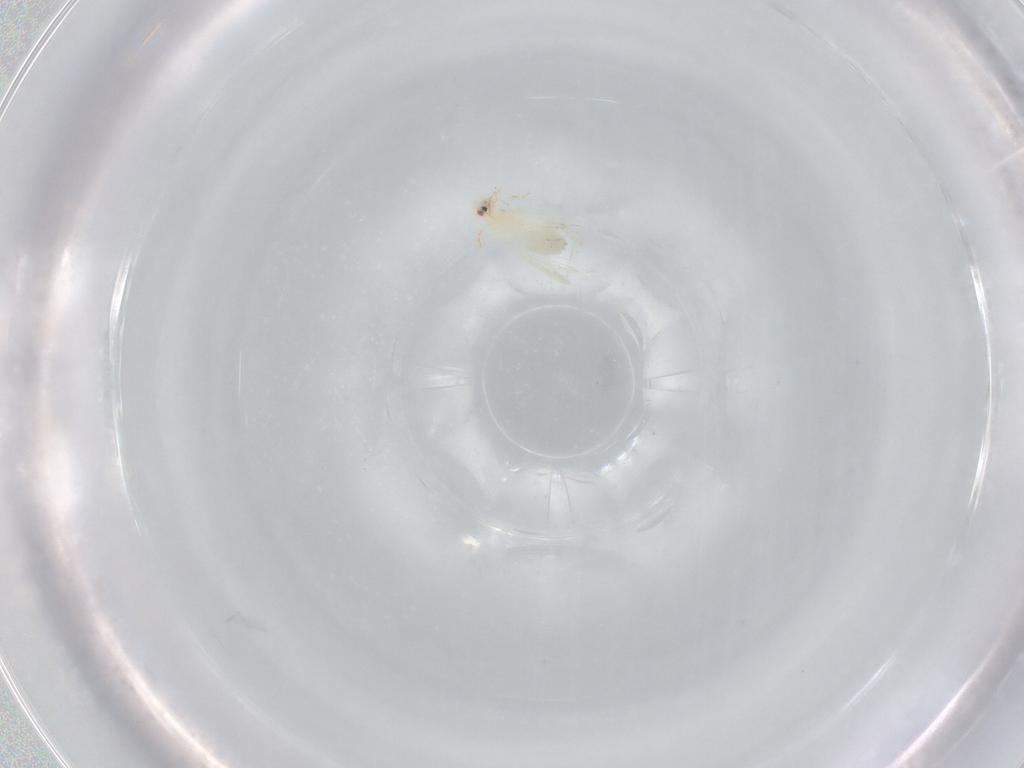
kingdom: Animalia
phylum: Arthropoda
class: Insecta
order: Hemiptera
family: Aleyrodidae
